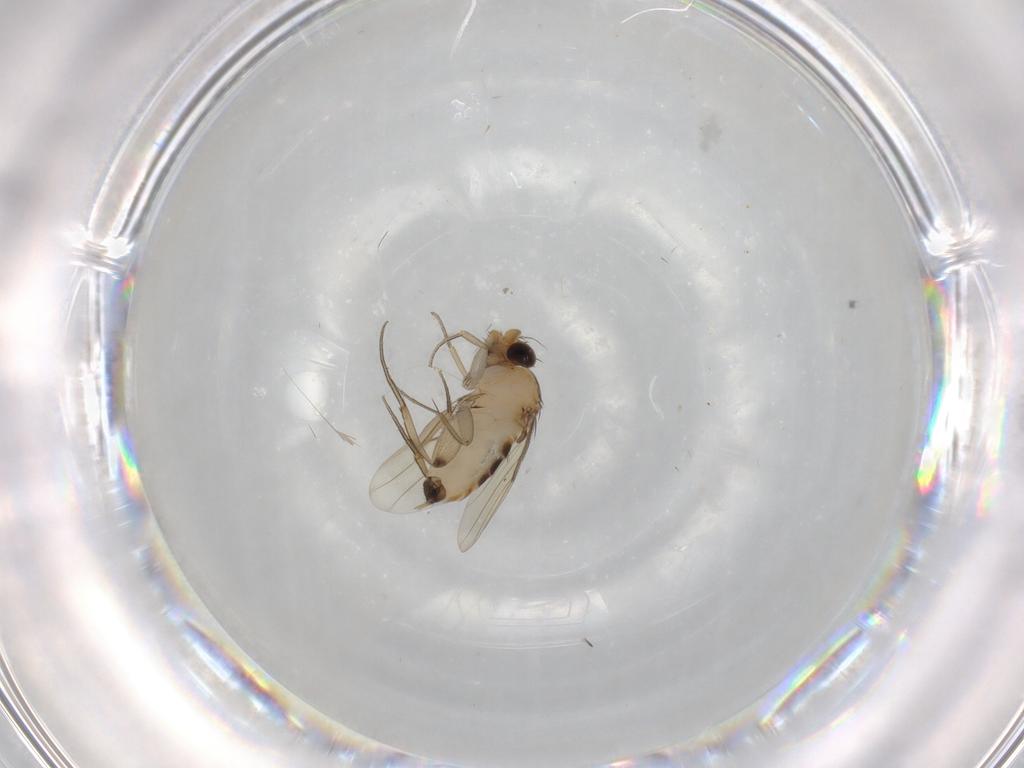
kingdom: Animalia
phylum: Arthropoda
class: Insecta
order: Diptera
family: Phoridae
